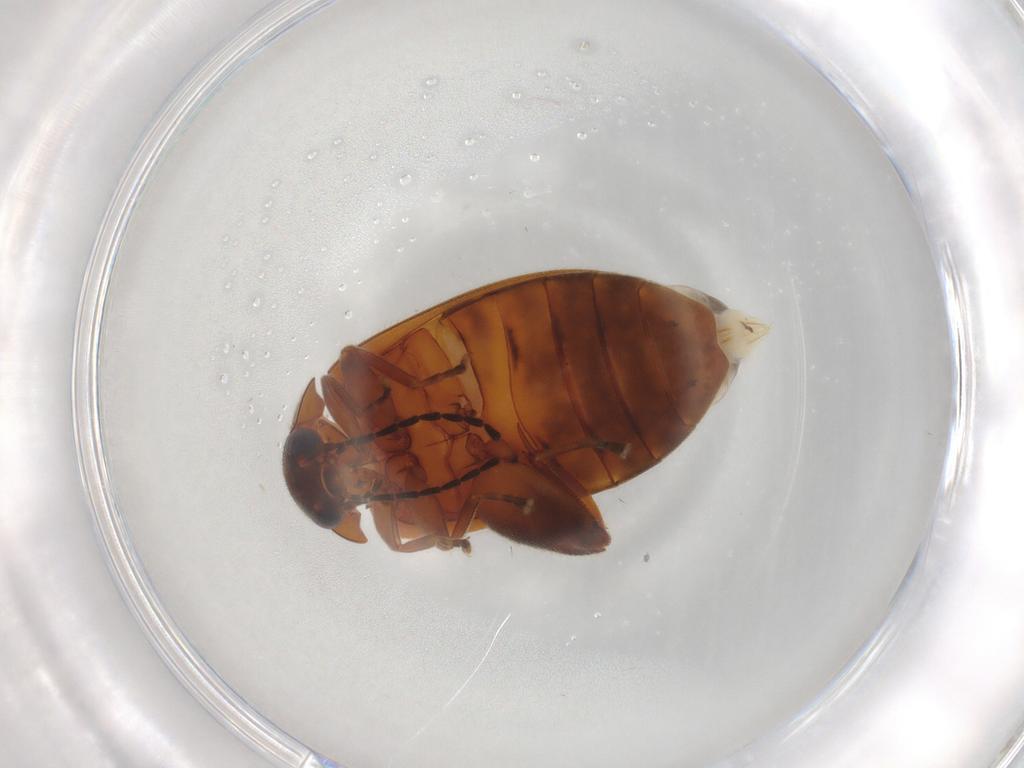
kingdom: Animalia
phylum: Arthropoda
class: Insecta
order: Coleoptera
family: Scirtidae
